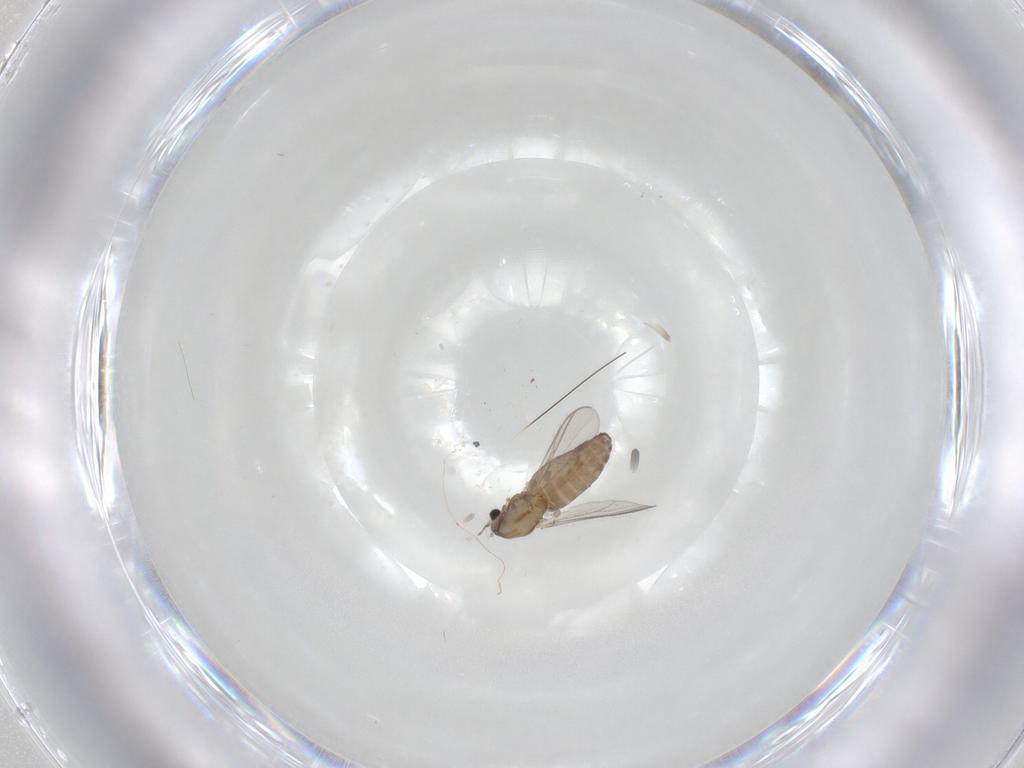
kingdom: Animalia
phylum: Arthropoda
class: Insecta
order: Diptera
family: Chironomidae
